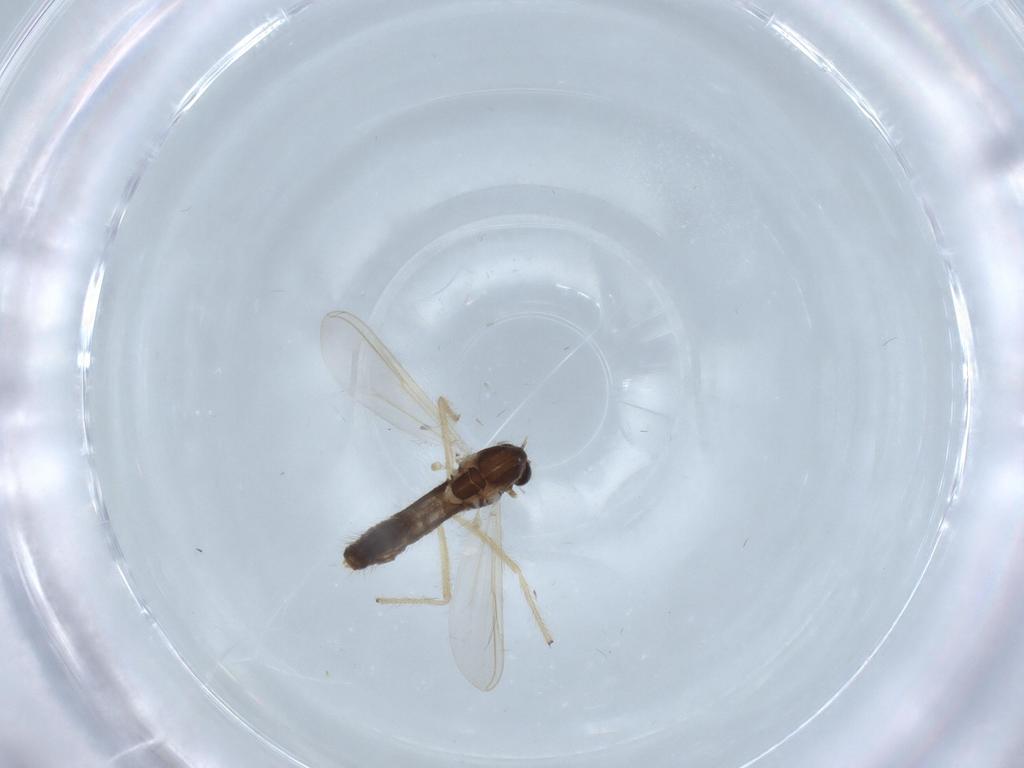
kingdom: Animalia
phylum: Arthropoda
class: Insecta
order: Diptera
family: Chironomidae
